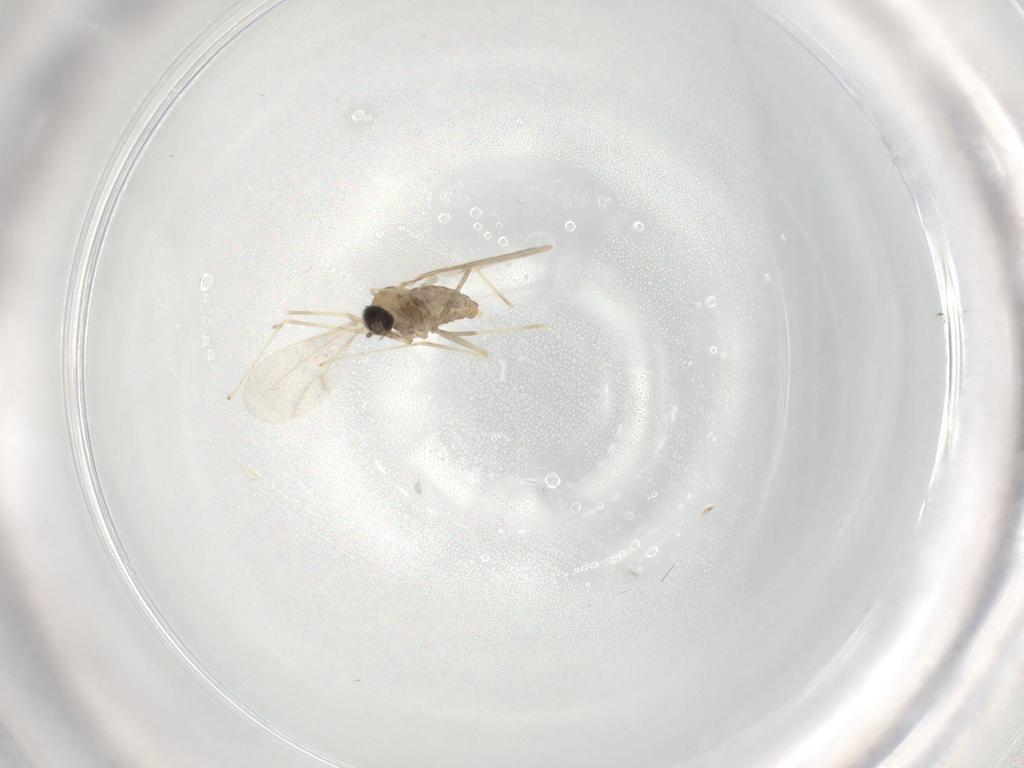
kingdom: Animalia
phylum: Arthropoda
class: Insecta
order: Diptera
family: Cecidomyiidae
